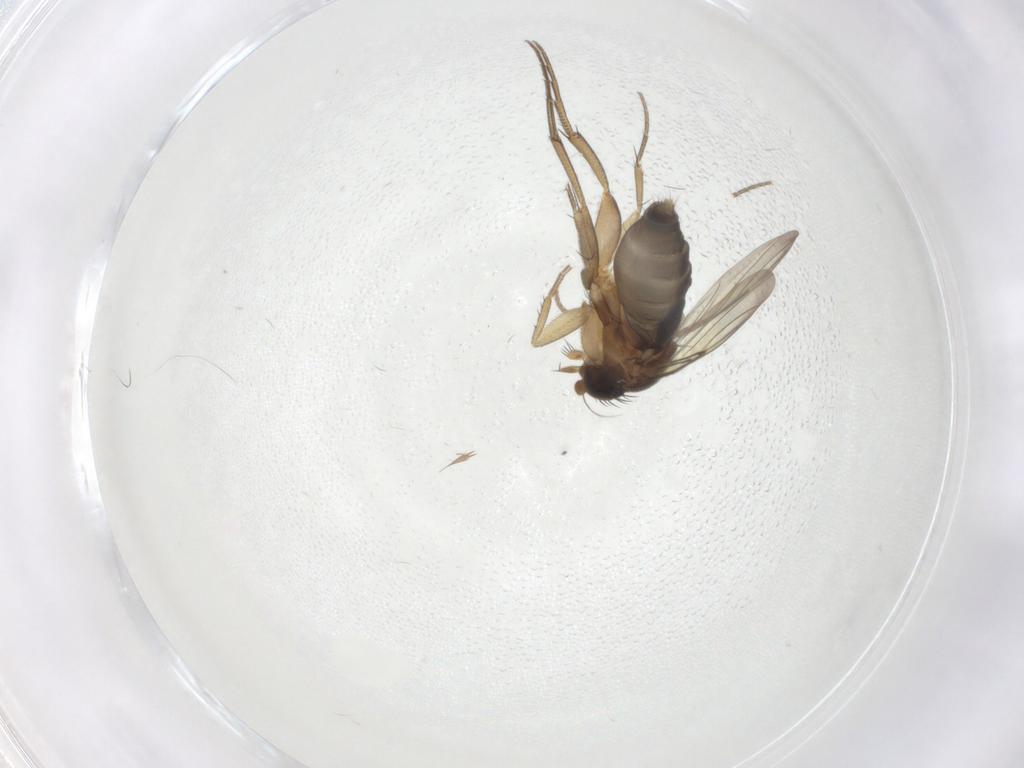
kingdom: Animalia
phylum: Arthropoda
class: Insecta
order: Diptera
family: Phoridae
